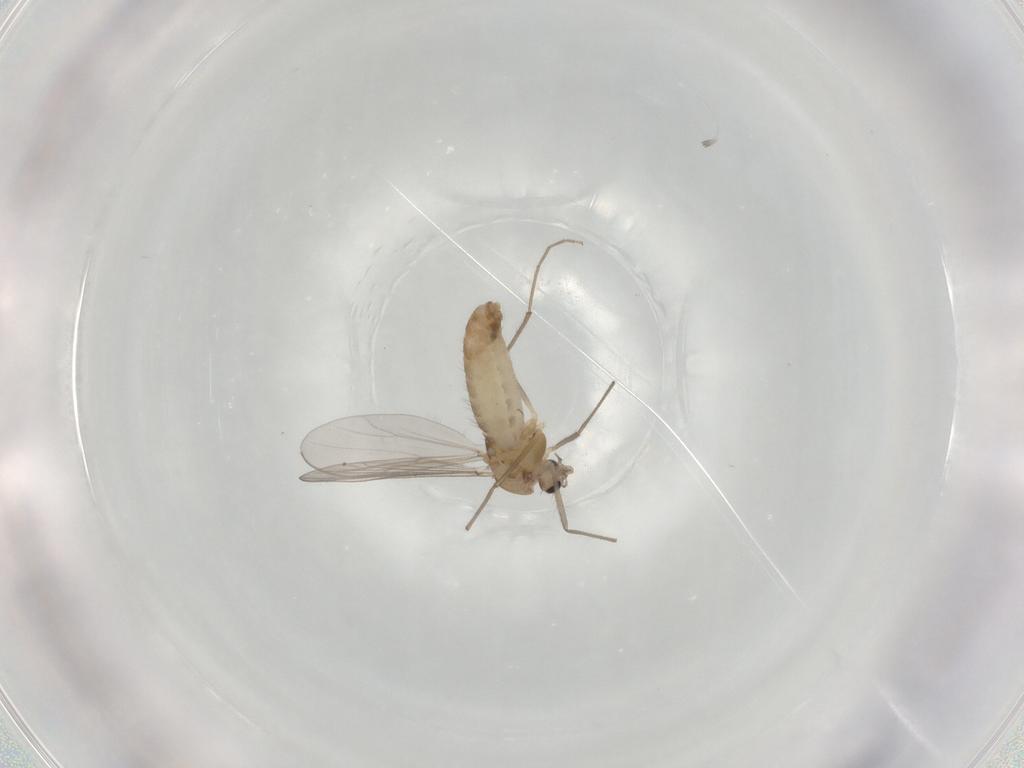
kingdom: Animalia
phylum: Arthropoda
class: Insecta
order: Diptera
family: Chironomidae
